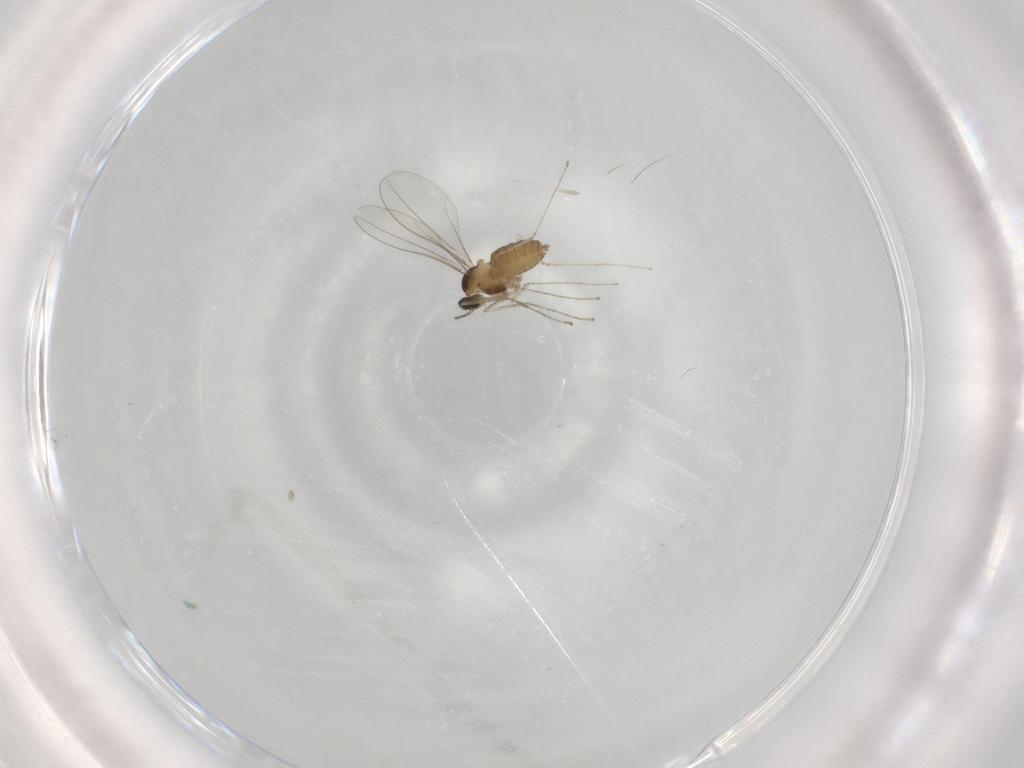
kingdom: Animalia
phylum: Arthropoda
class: Insecta
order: Diptera
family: Cecidomyiidae
